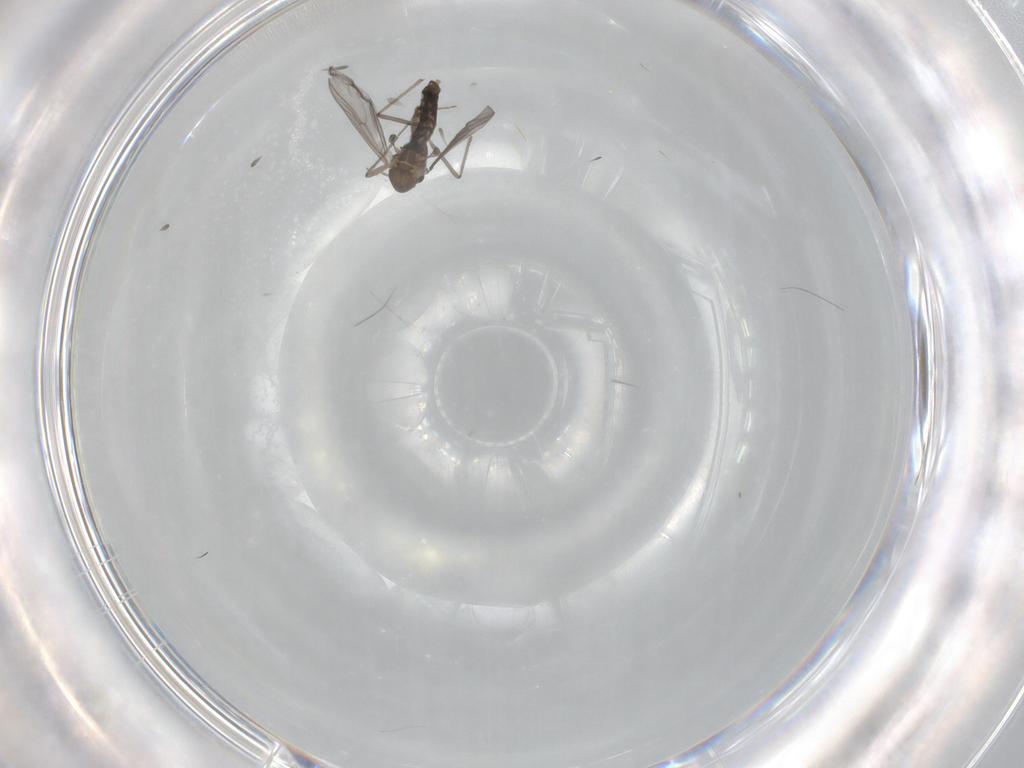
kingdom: Animalia
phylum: Arthropoda
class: Insecta
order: Diptera
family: Chironomidae
